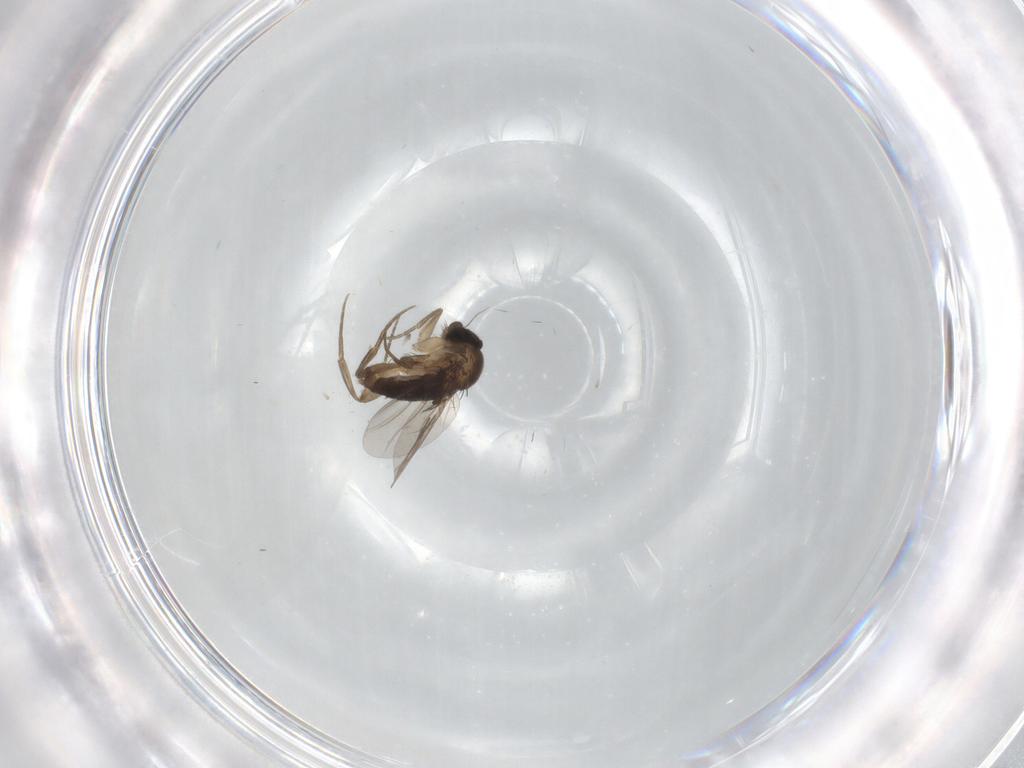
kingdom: Animalia
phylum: Arthropoda
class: Insecta
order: Diptera
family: Phoridae
